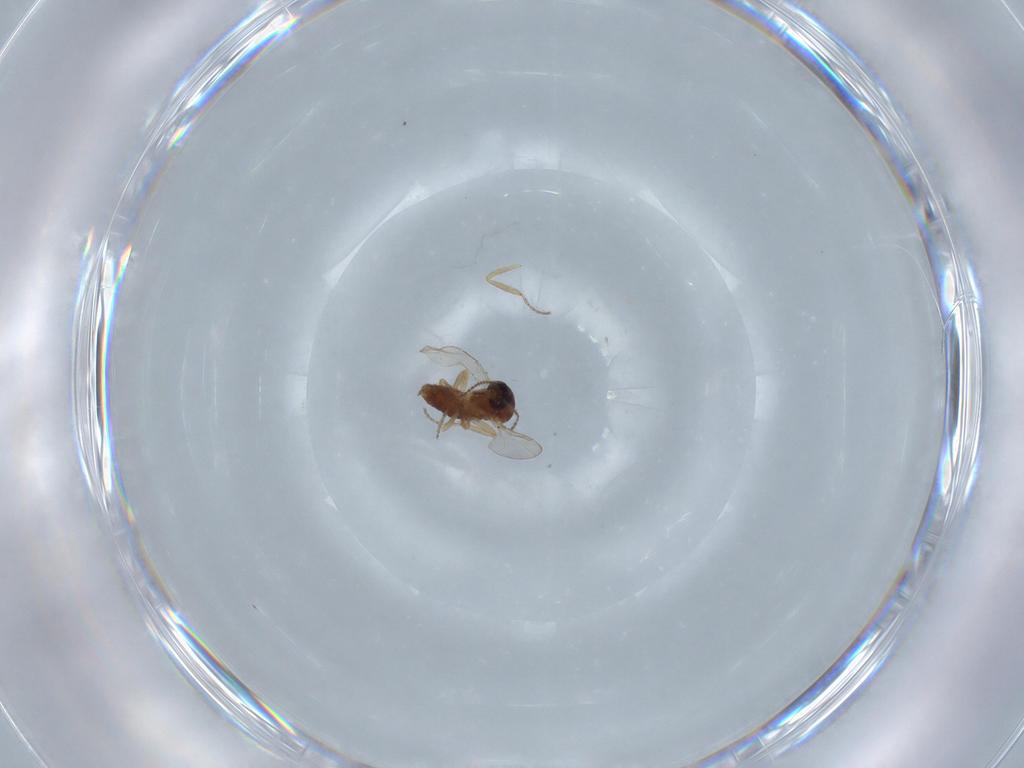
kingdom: Animalia
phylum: Arthropoda
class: Insecta
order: Diptera
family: Ceratopogonidae
